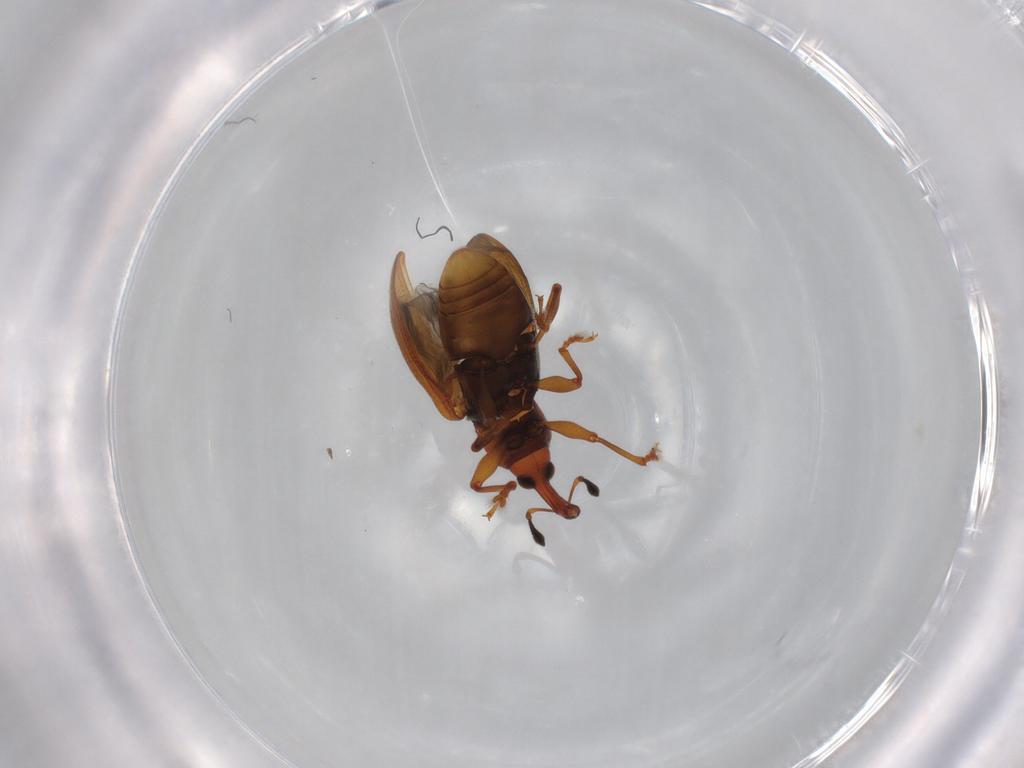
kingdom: Animalia
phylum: Arthropoda
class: Insecta
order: Coleoptera
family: Curculionidae
